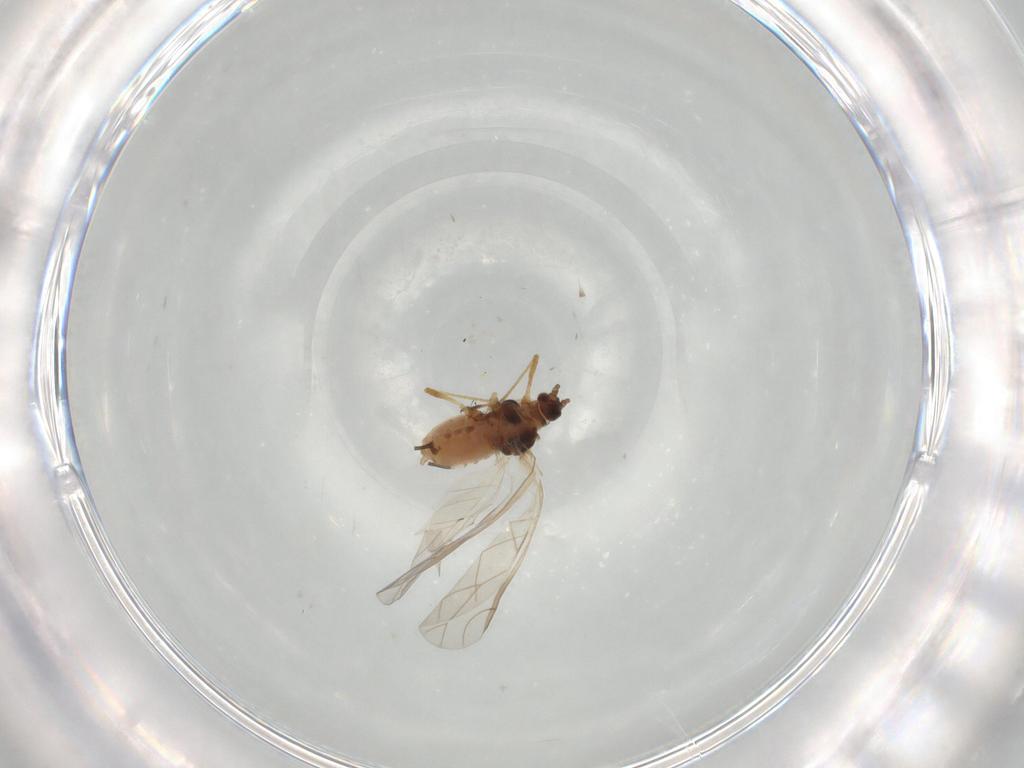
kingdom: Animalia
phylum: Arthropoda
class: Insecta
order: Hemiptera
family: Aphididae
